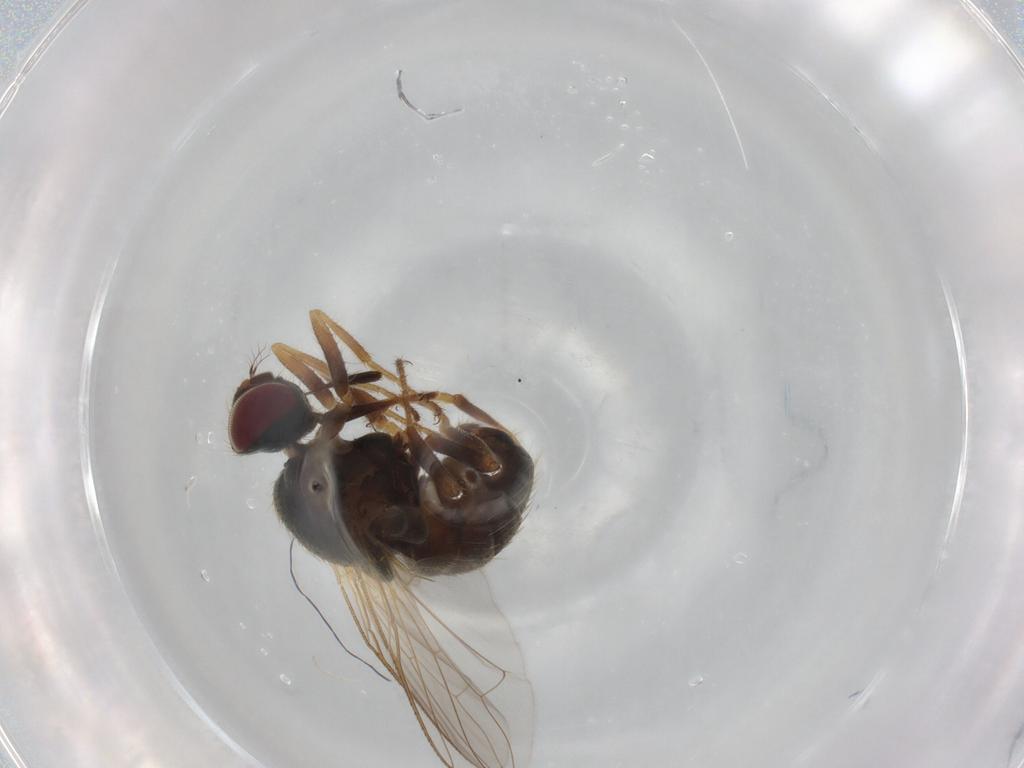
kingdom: Animalia
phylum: Arthropoda
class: Insecta
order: Diptera
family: Muscidae
